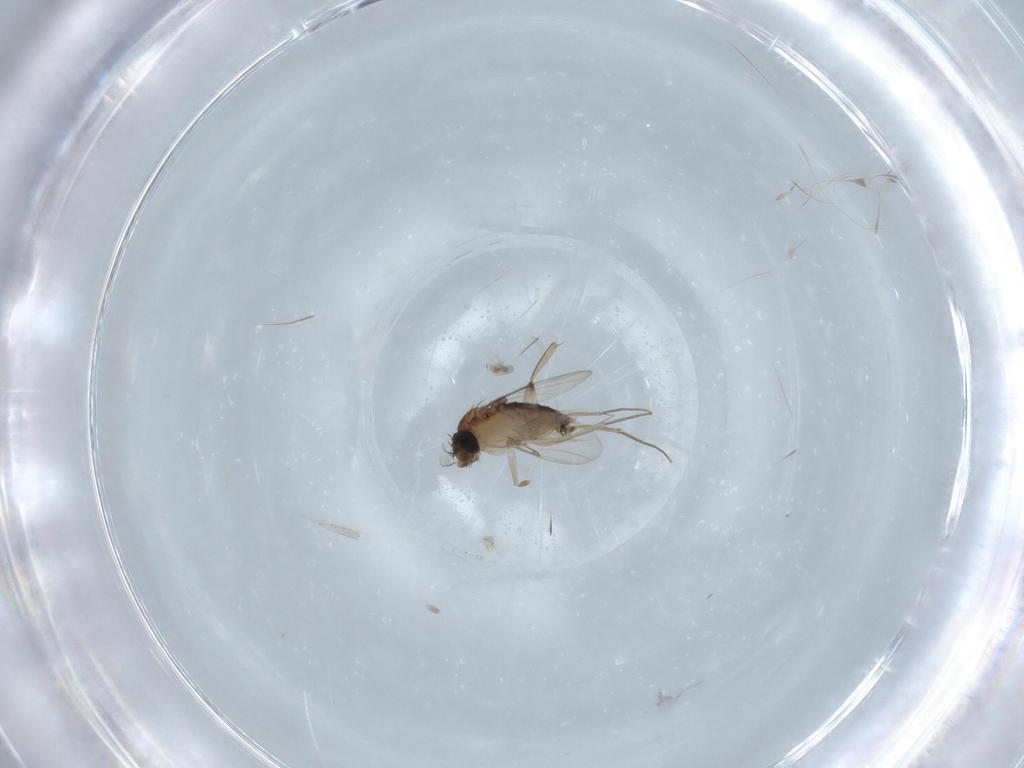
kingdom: Animalia
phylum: Arthropoda
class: Insecta
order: Diptera
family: Phoridae
